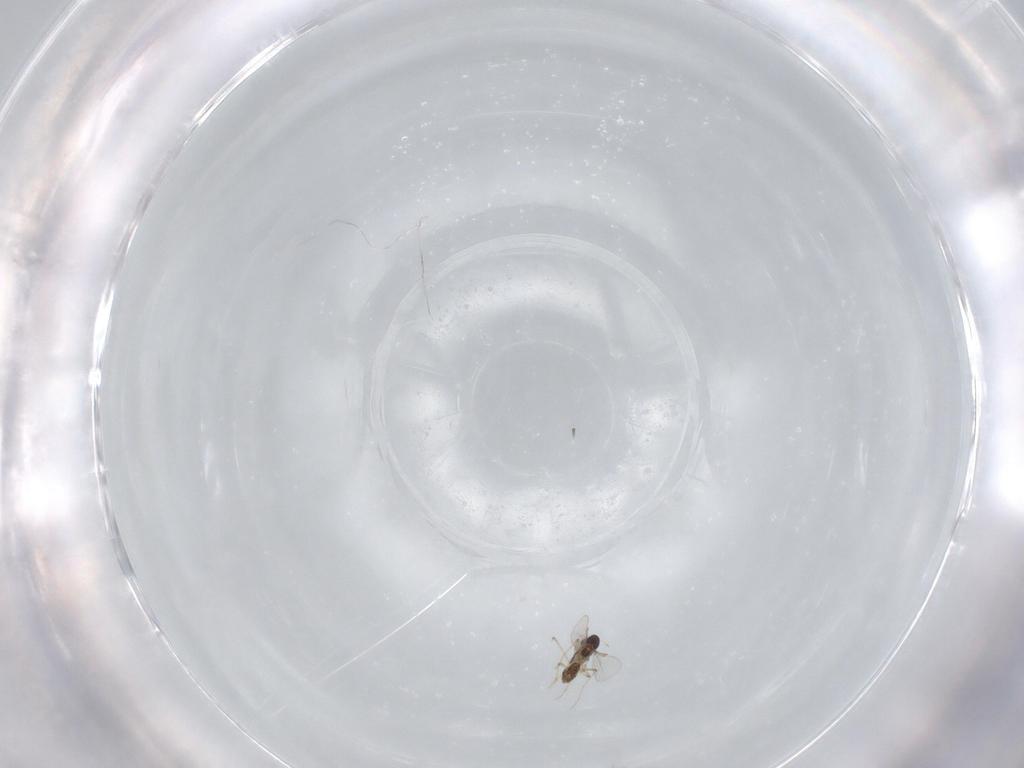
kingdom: Animalia
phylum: Arthropoda
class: Insecta
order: Diptera
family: Chironomidae
